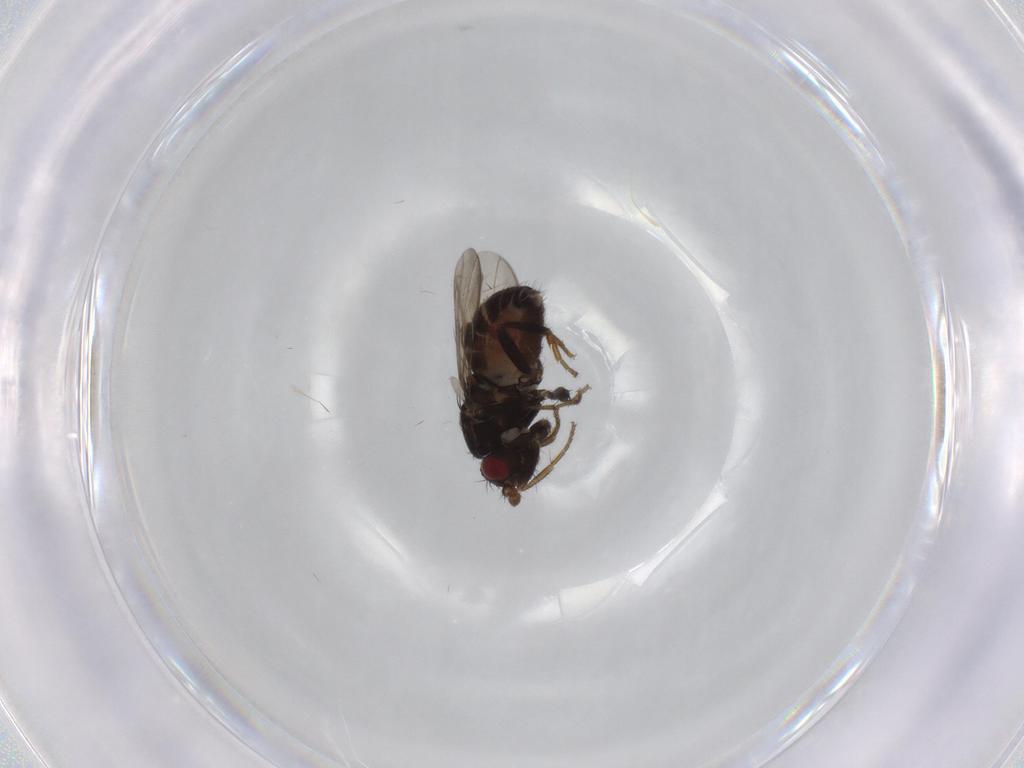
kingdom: Animalia
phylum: Arthropoda
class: Insecta
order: Diptera
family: Sphaeroceridae
